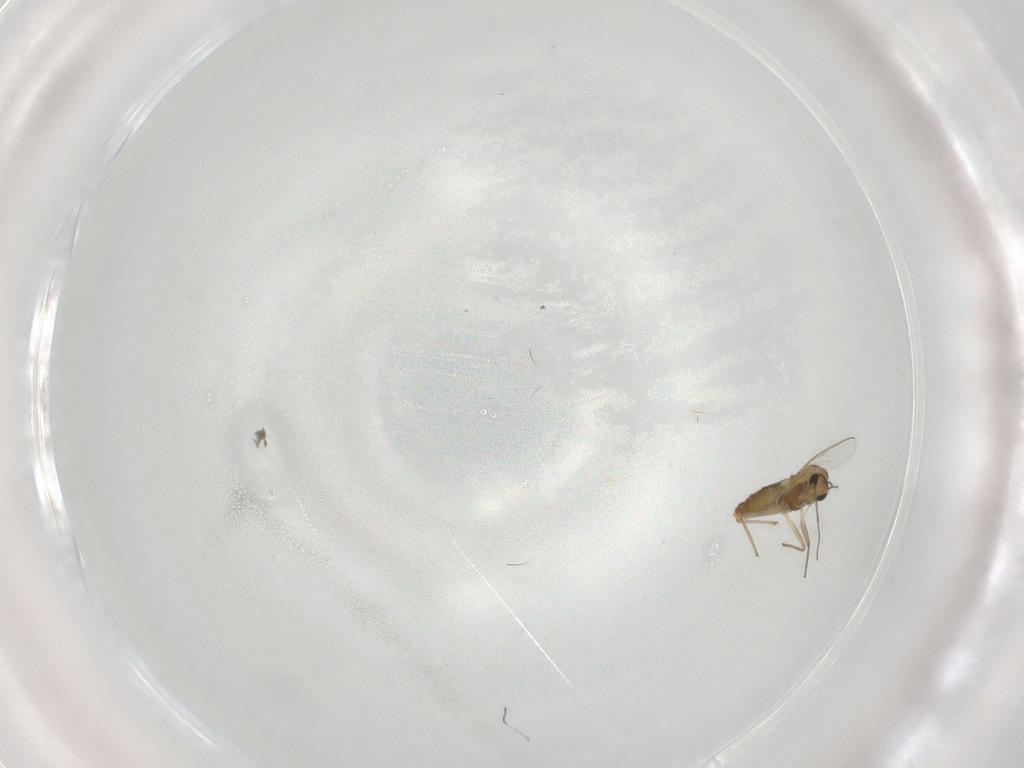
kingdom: Animalia
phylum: Arthropoda
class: Insecta
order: Diptera
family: Chironomidae
